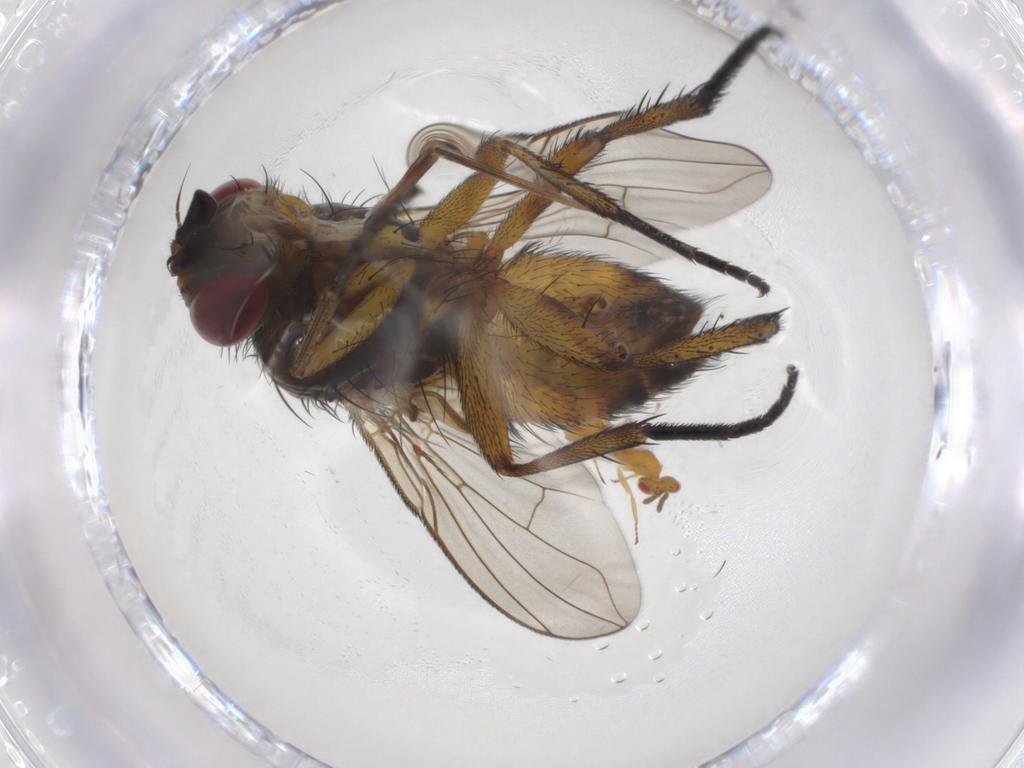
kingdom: Animalia
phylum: Arthropoda
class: Insecta
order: Diptera
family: Tachinidae
